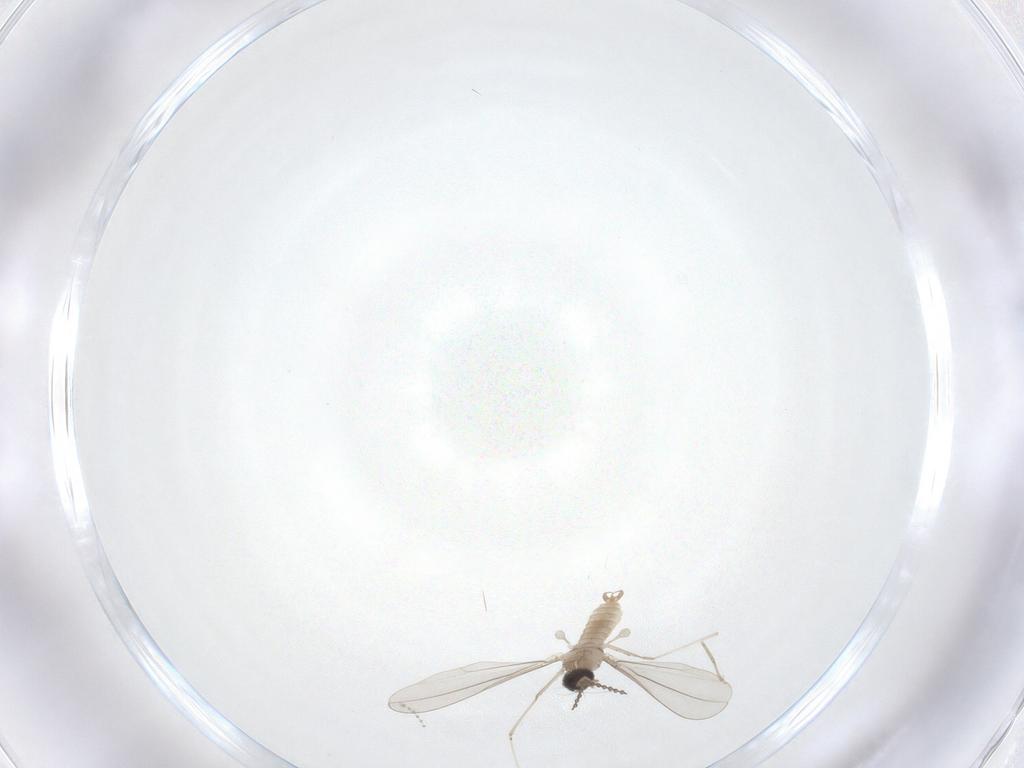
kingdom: Animalia
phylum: Arthropoda
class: Insecta
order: Diptera
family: Cecidomyiidae
